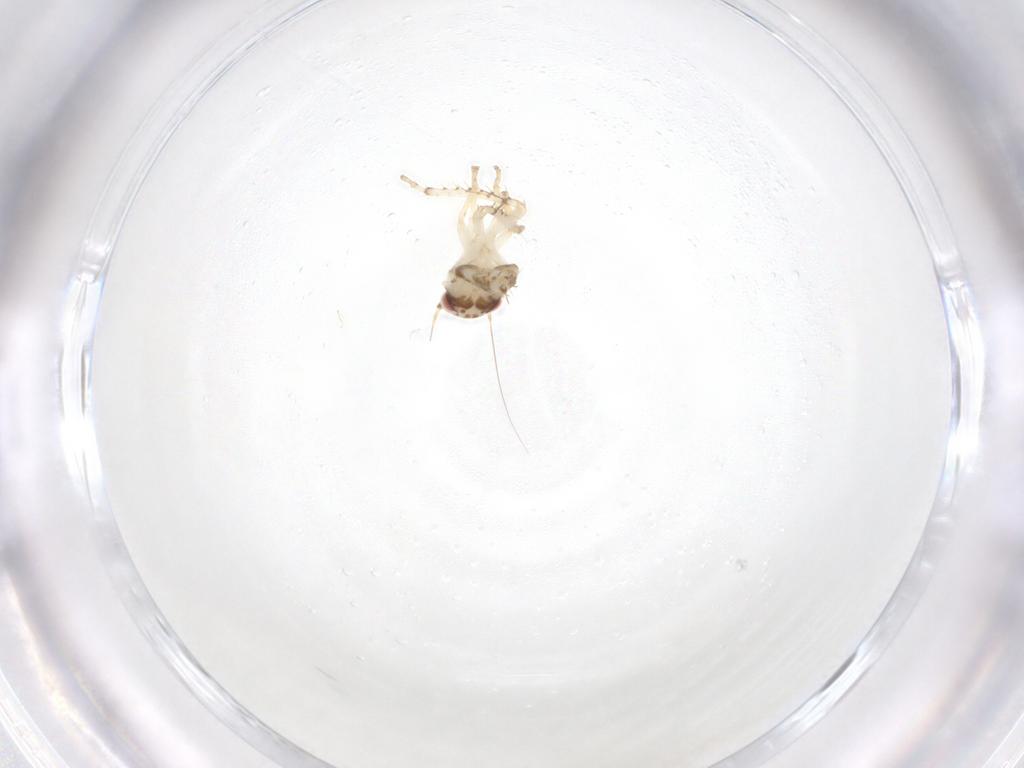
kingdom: Animalia
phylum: Arthropoda
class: Insecta
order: Hemiptera
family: Cicadellidae
